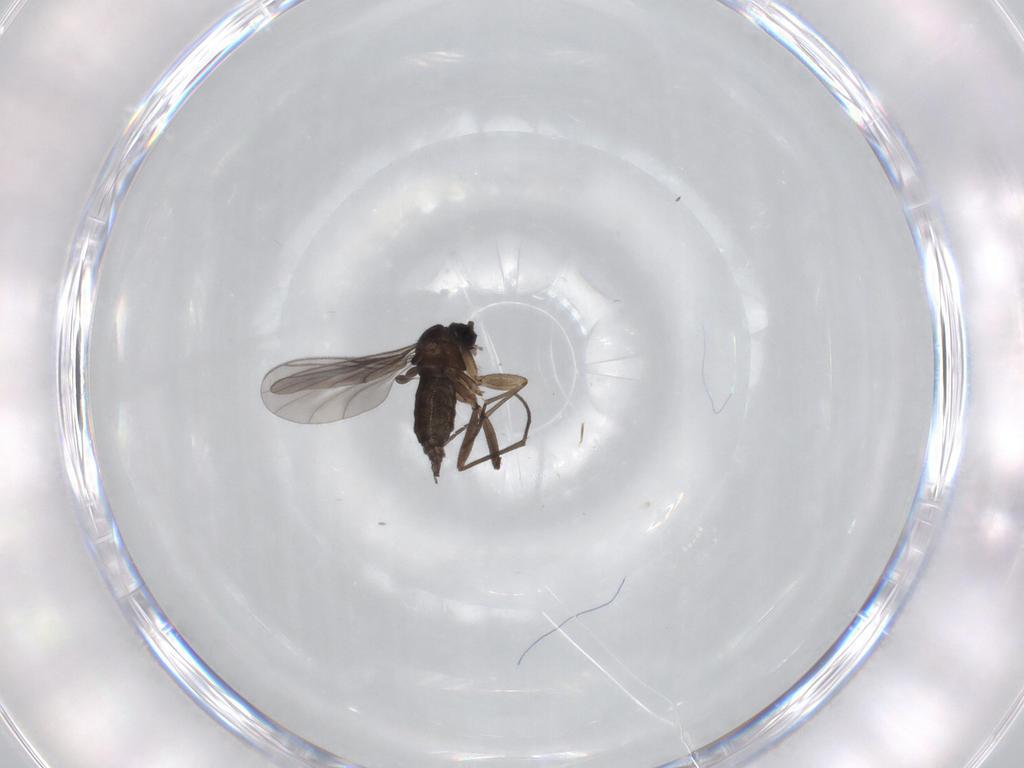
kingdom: Animalia
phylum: Arthropoda
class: Insecta
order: Diptera
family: Sciaridae
